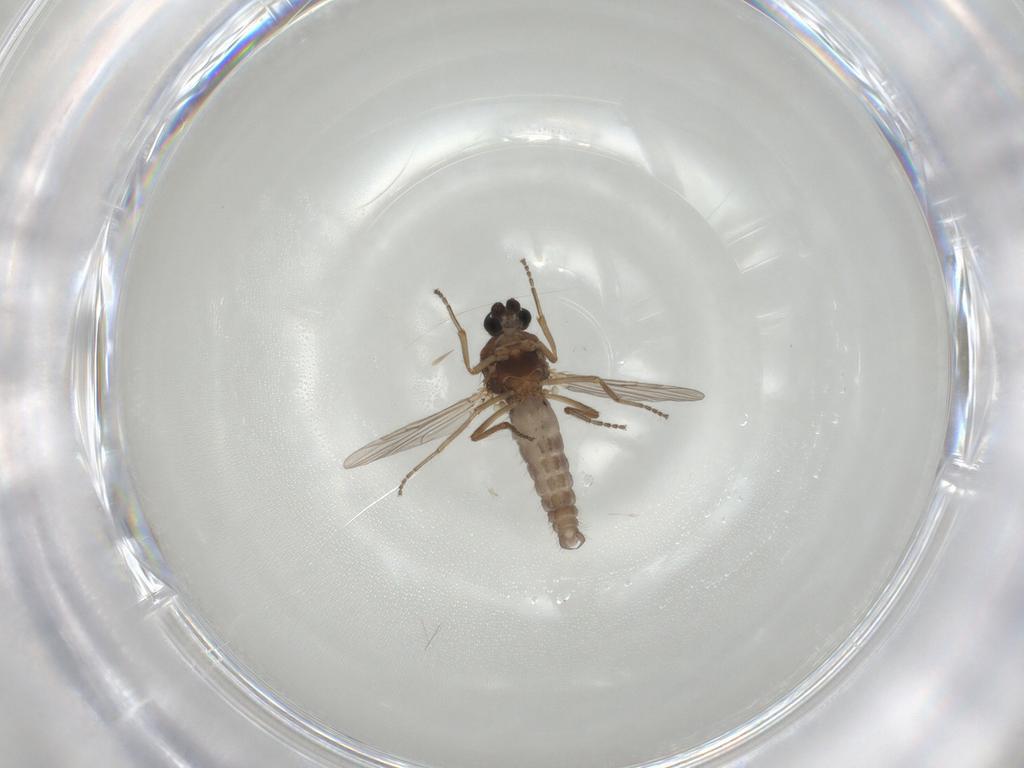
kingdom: Animalia
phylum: Arthropoda
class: Insecta
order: Diptera
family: Ceratopogonidae
